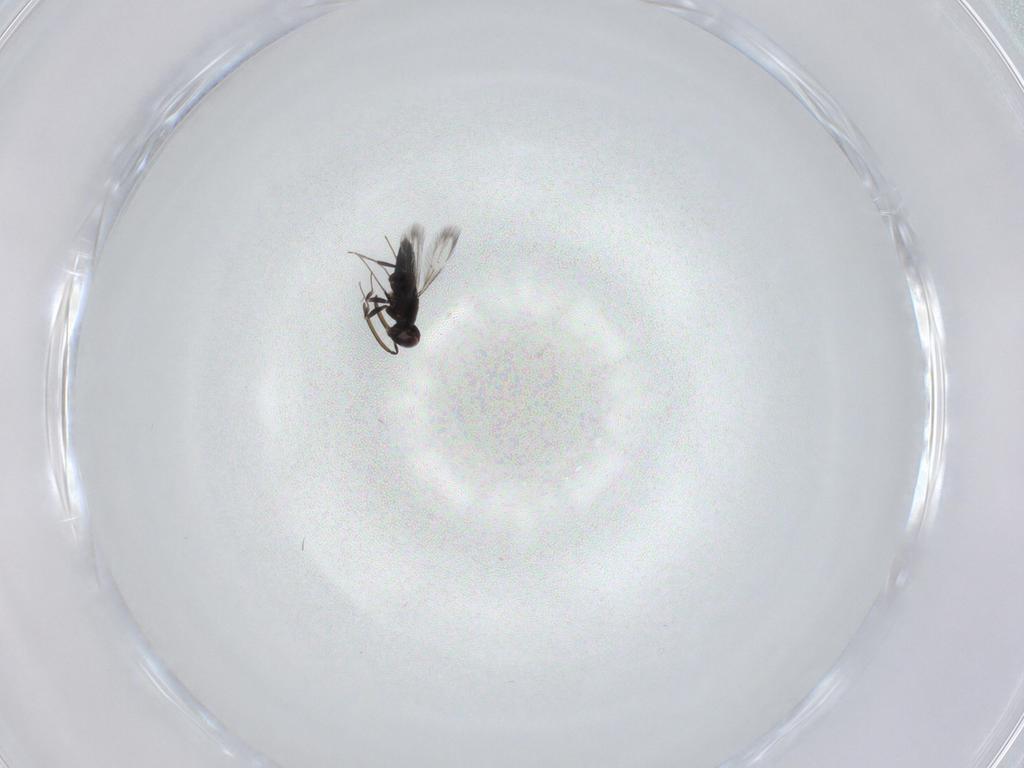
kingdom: Animalia
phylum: Arthropoda
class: Insecta
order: Hymenoptera
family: Signiphoridae
